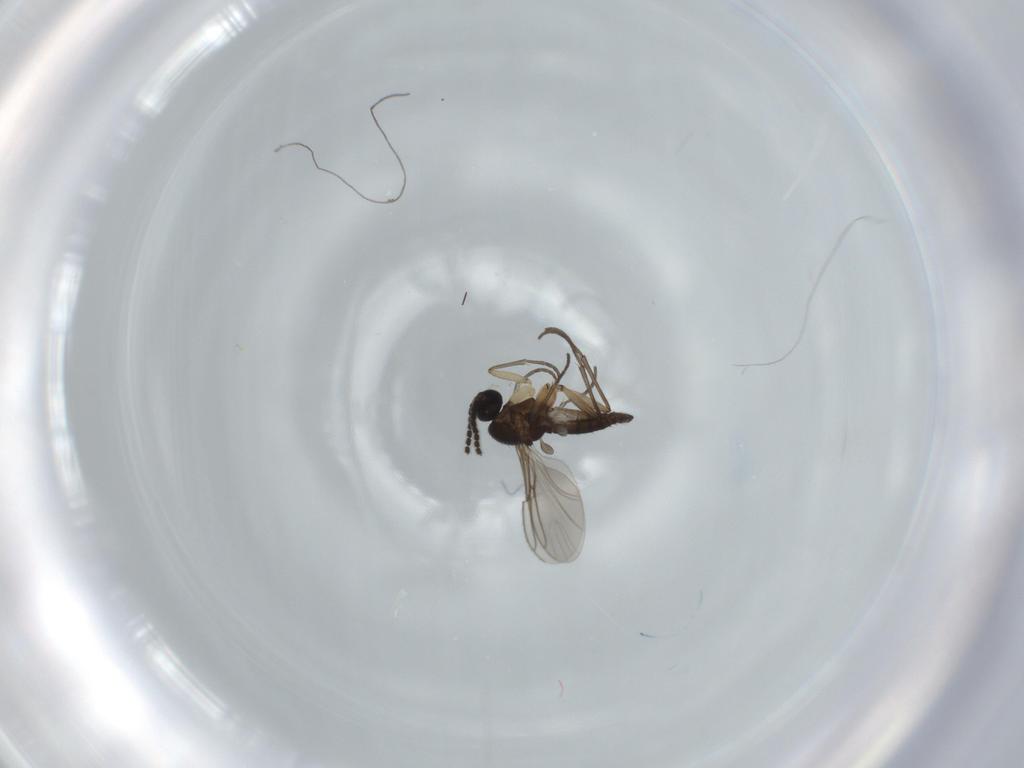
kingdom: Animalia
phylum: Arthropoda
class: Insecta
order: Diptera
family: Sciaridae
